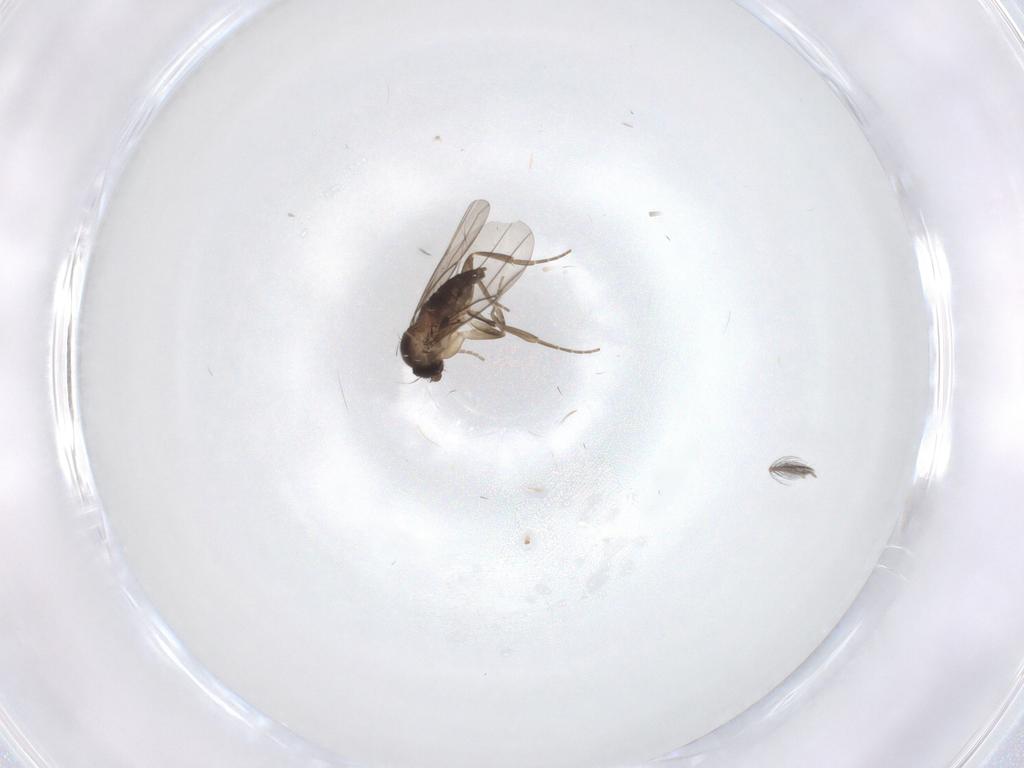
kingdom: Animalia
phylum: Arthropoda
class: Insecta
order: Diptera
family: Ceratopogonidae
